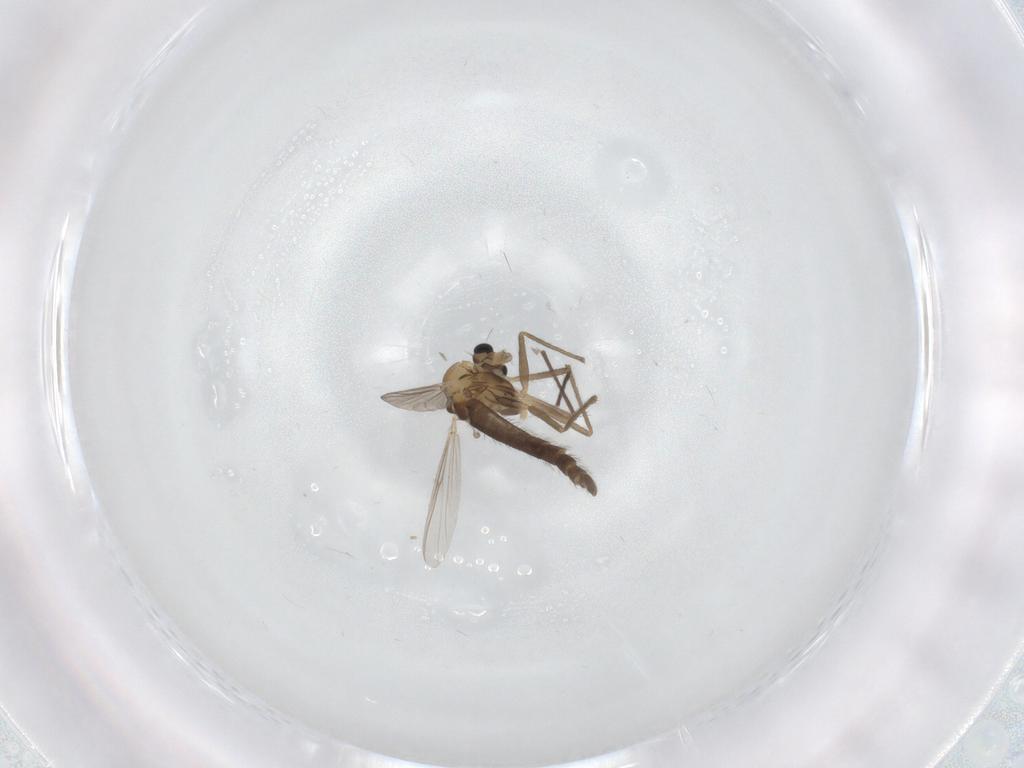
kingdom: Animalia
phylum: Arthropoda
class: Insecta
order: Diptera
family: Chironomidae
